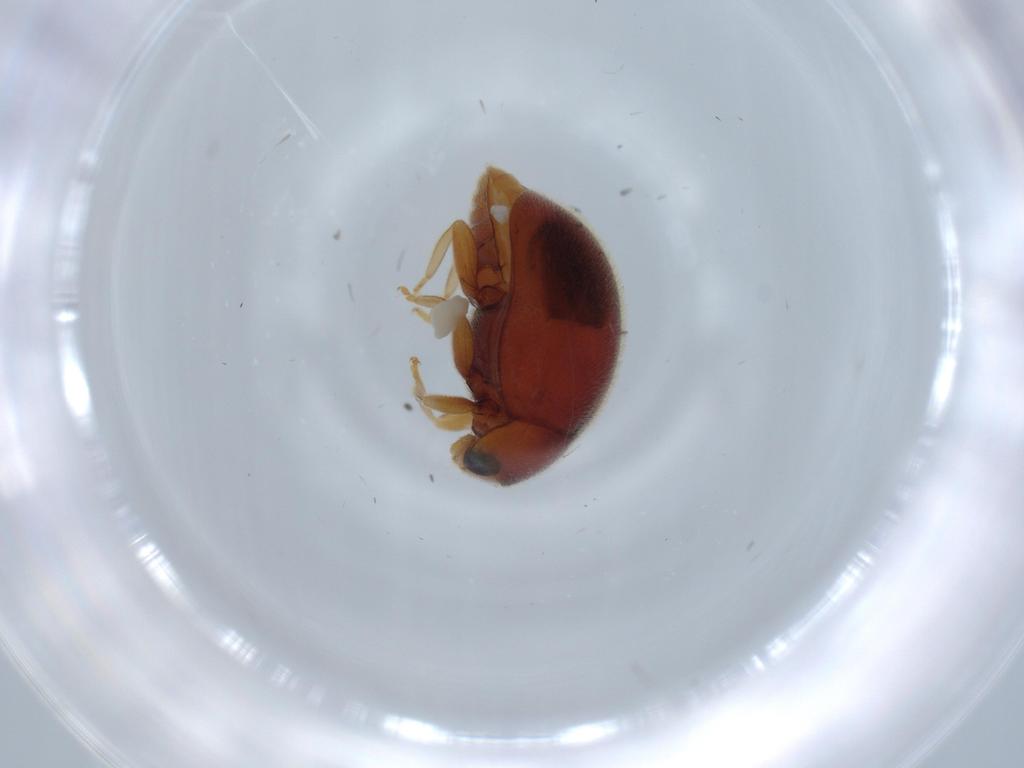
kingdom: Animalia
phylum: Arthropoda
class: Insecta
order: Coleoptera
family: Coccinellidae
